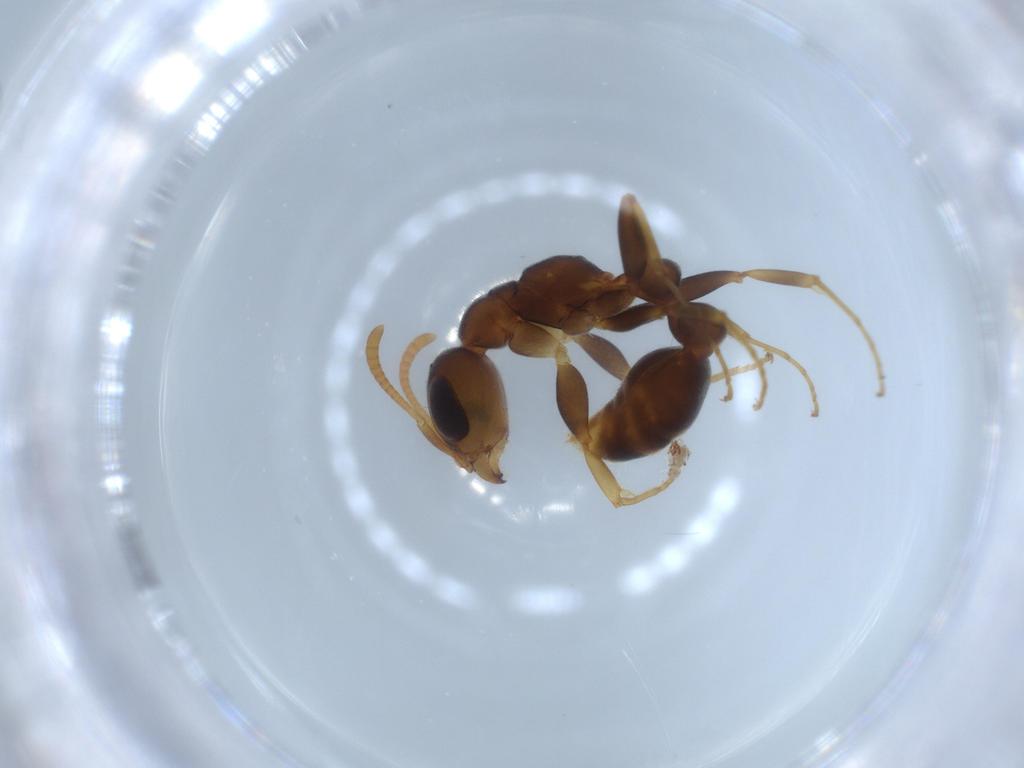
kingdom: Animalia
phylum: Arthropoda
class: Insecta
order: Hymenoptera
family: Formicidae
